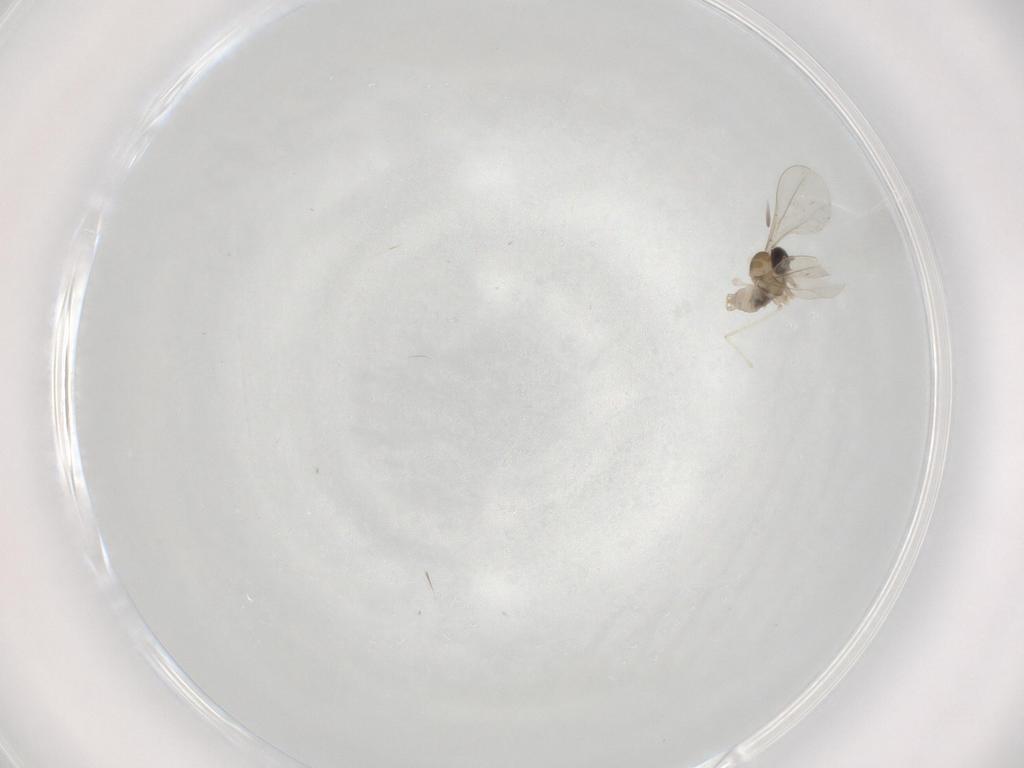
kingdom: Animalia
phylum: Arthropoda
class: Insecta
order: Diptera
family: Cecidomyiidae
